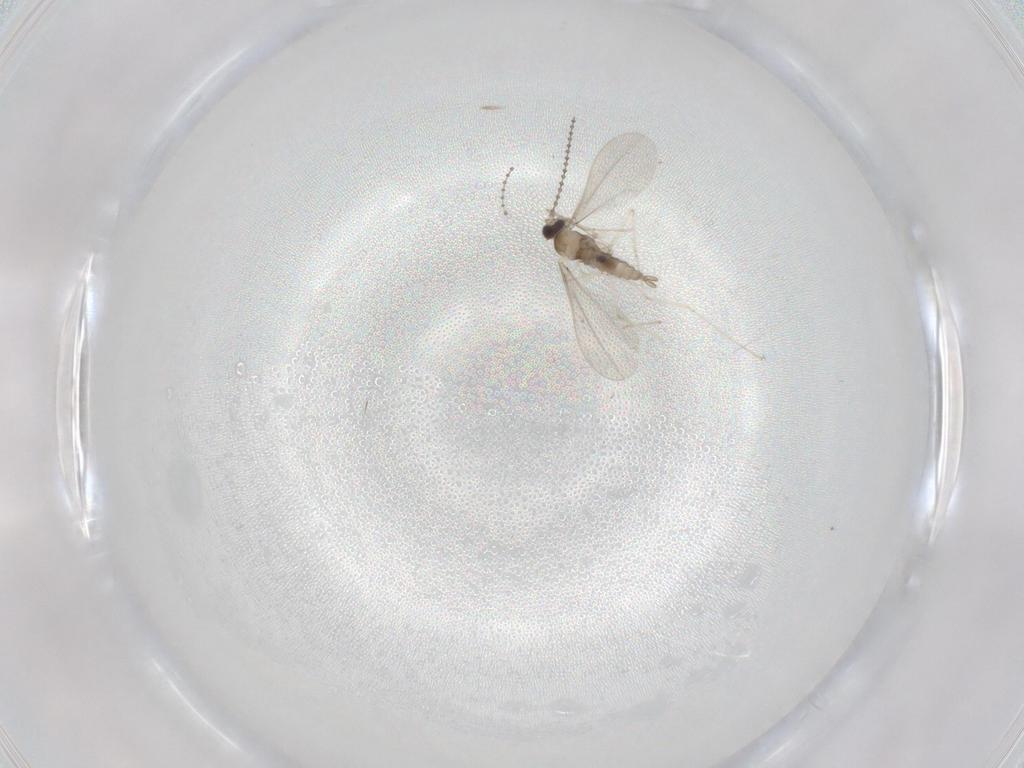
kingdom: Animalia
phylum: Arthropoda
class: Insecta
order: Diptera
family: Cecidomyiidae
